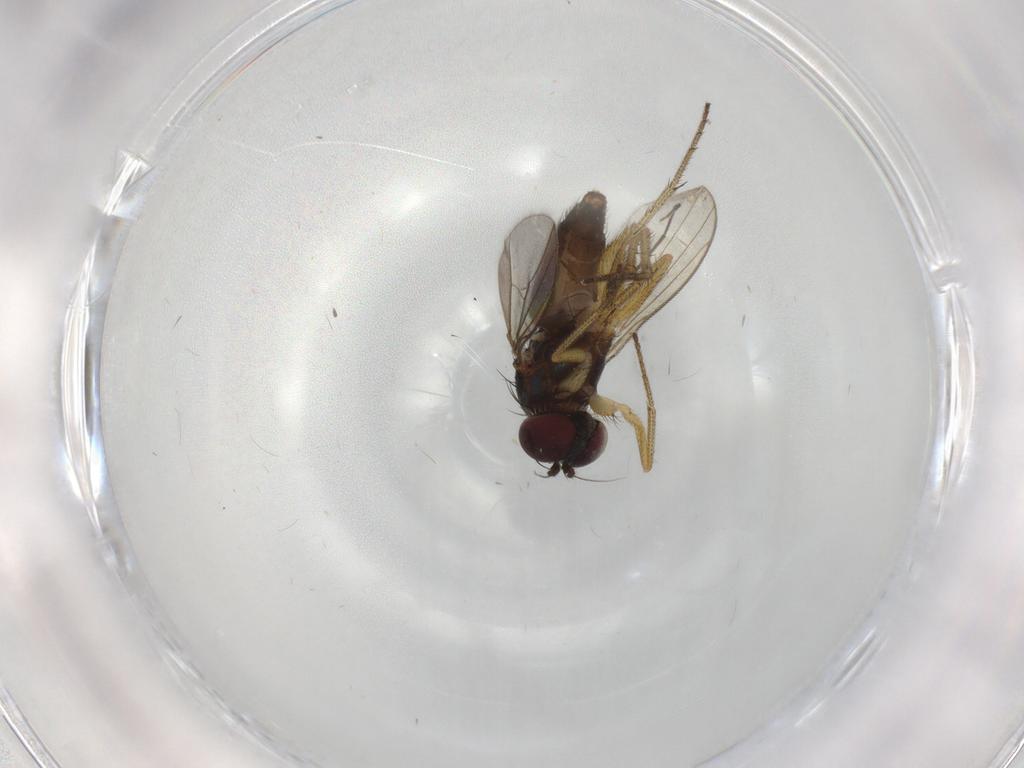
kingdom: Animalia
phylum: Arthropoda
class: Insecta
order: Diptera
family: Dolichopodidae
